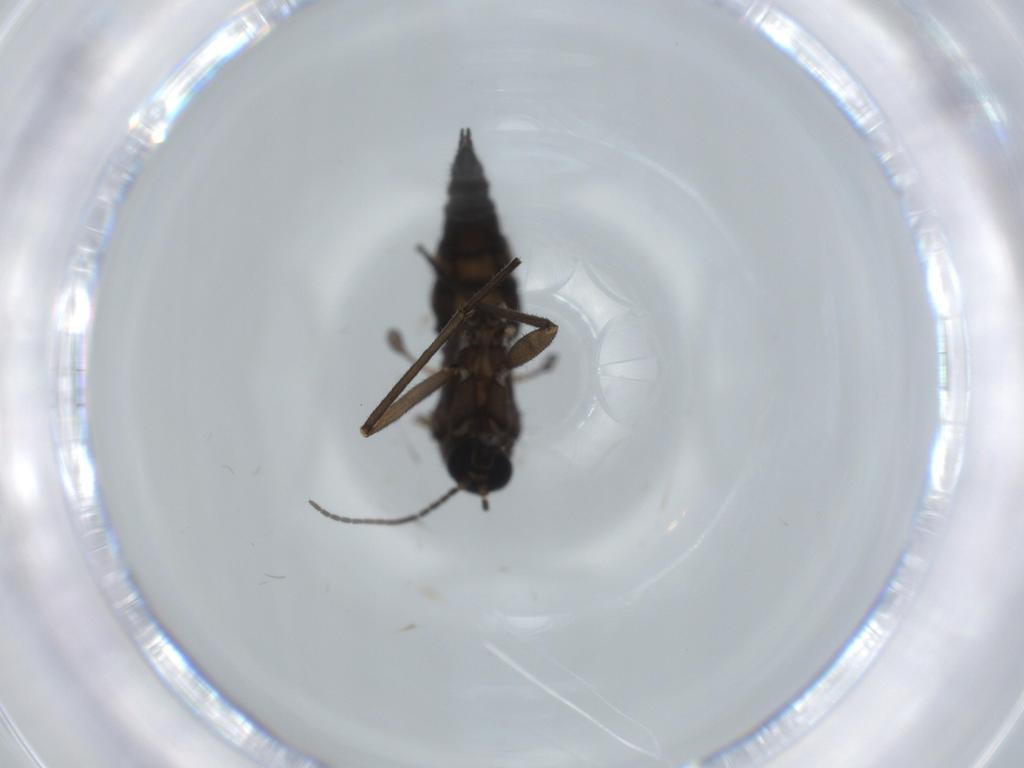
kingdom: Animalia
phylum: Arthropoda
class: Insecta
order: Diptera
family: Sciaridae
